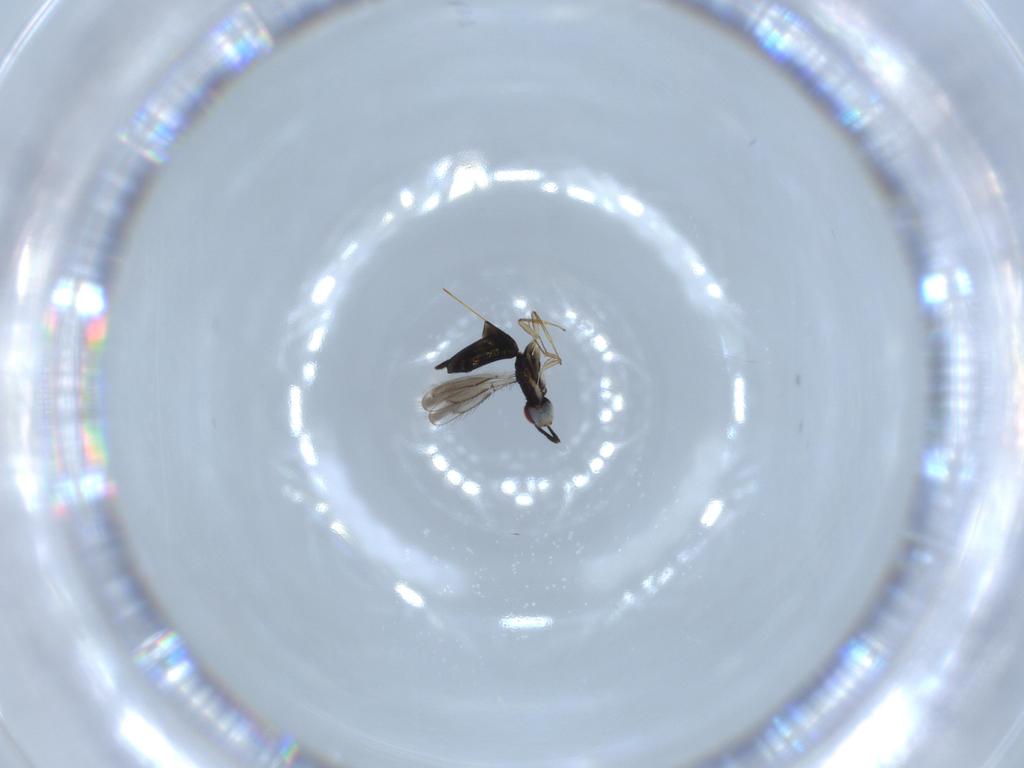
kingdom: Animalia
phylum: Arthropoda
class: Insecta
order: Hymenoptera
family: Pteromalidae
